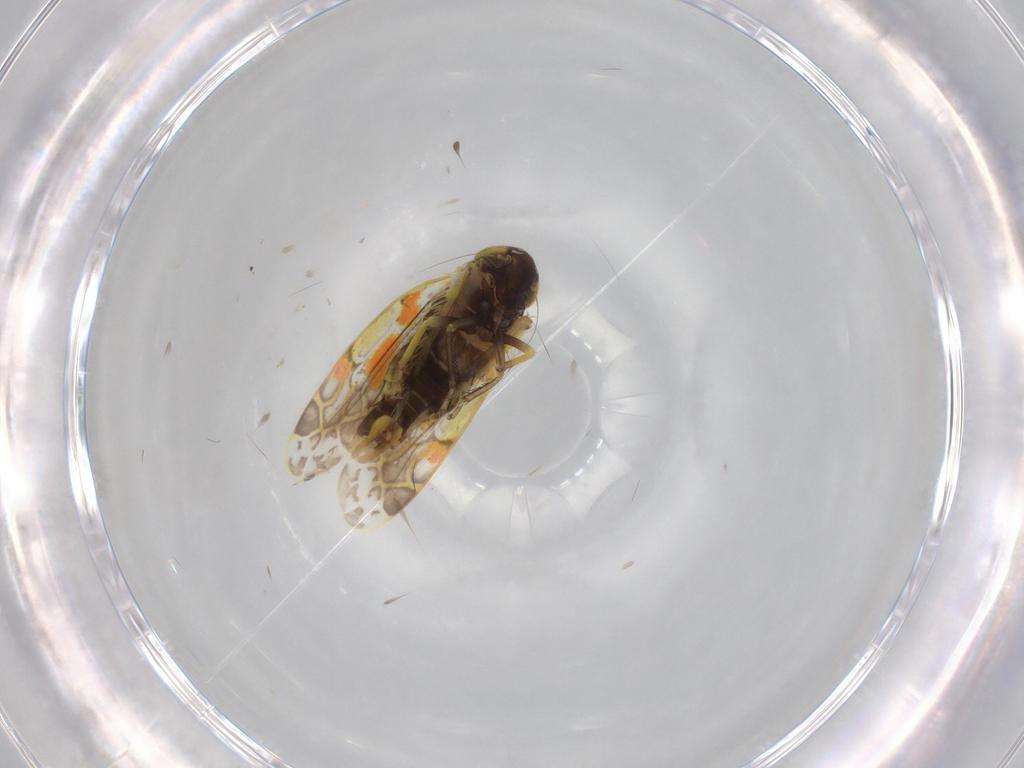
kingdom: Animalia
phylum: Arthropoda
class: Insecta
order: Hemiptera
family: Cicadellidae
